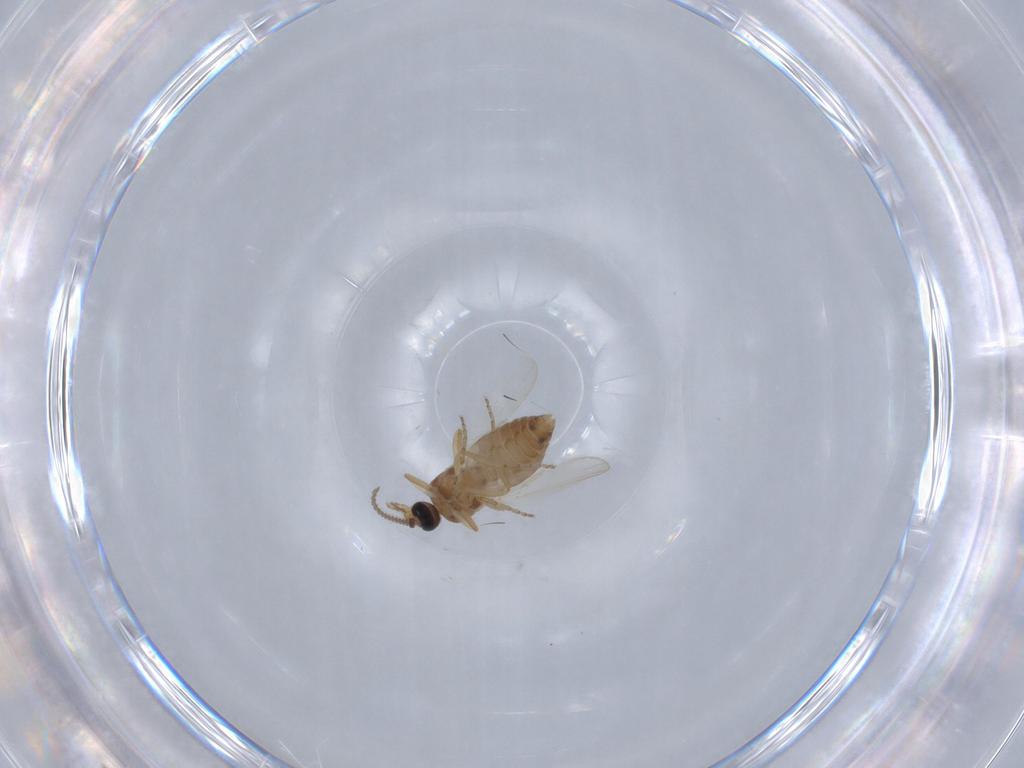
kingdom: Animalia
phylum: Arthropoda
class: Insecta
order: Diptera
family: Ceratopogonidae
